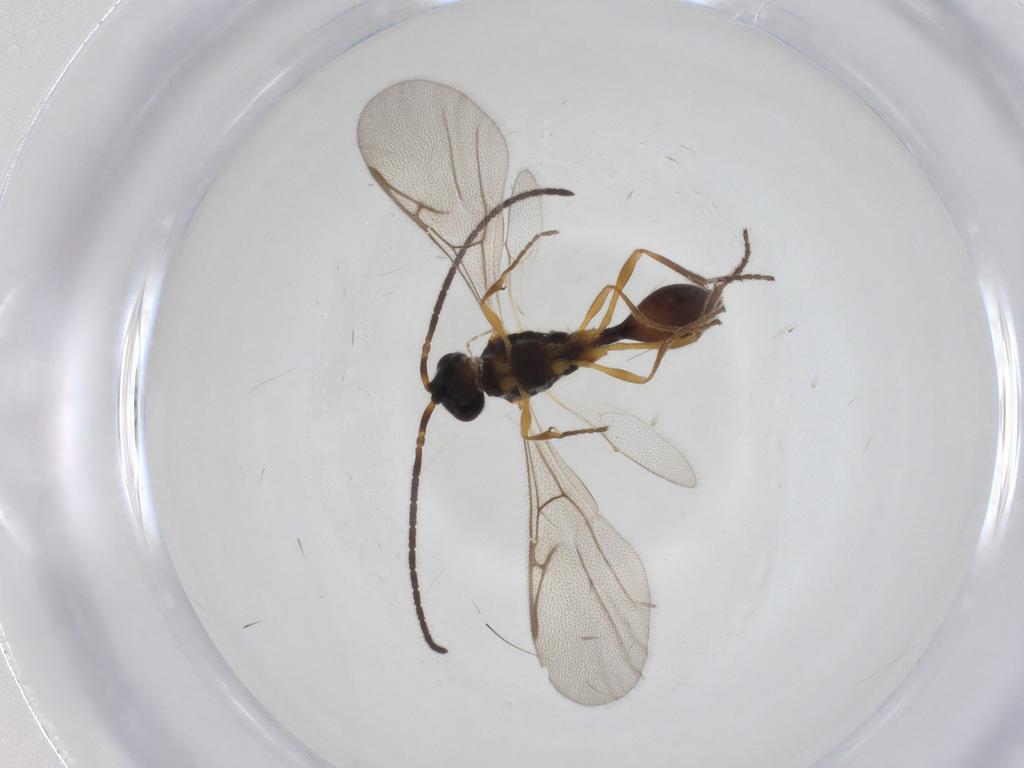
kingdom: Animalia
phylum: Arthropoda
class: Insecta
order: Hymenoptera
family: Diapriidae
